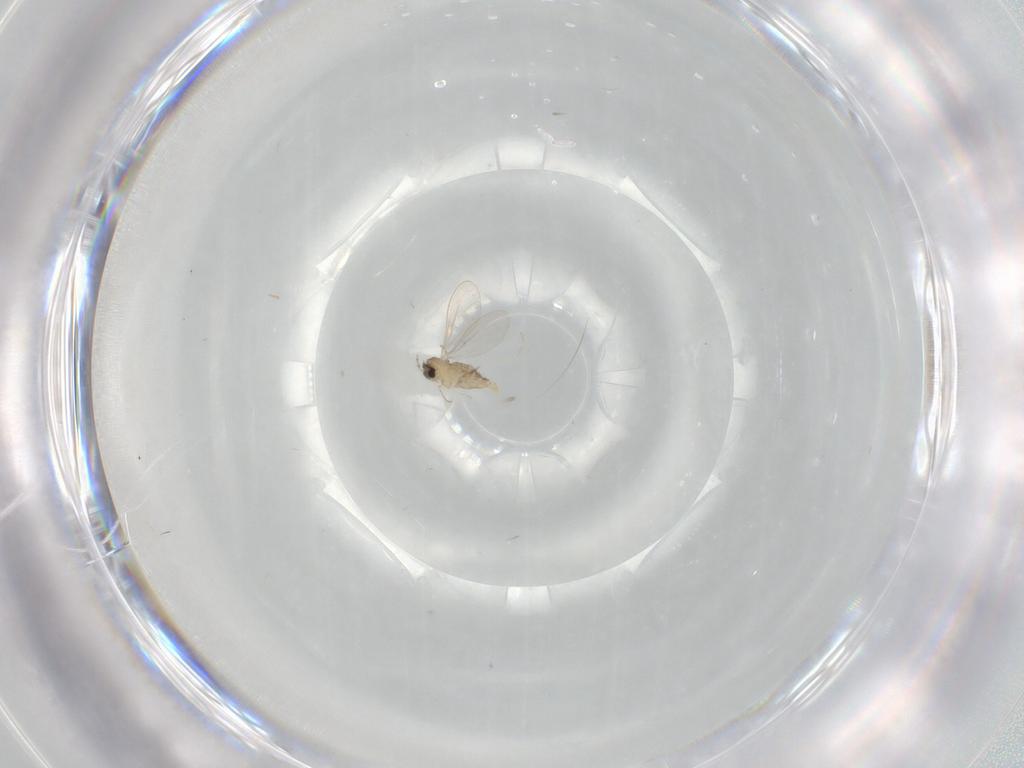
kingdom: Animalia
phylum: Arthropoda
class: Insecta
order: Diptera
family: Cecidomyiidae
